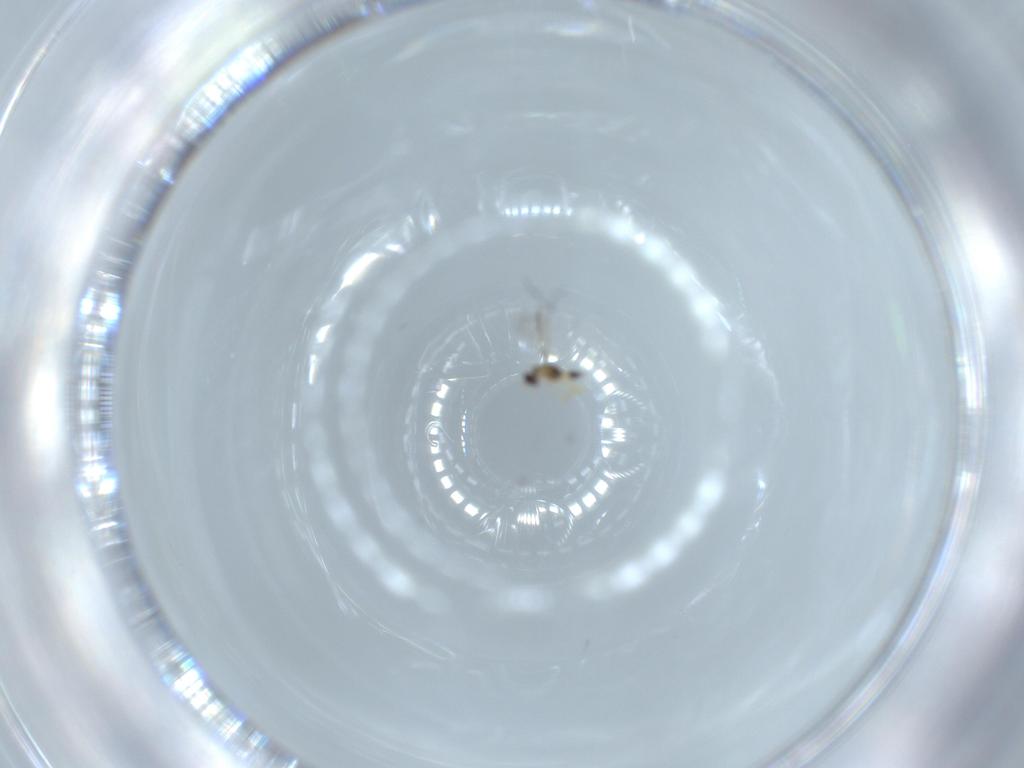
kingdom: Animalia
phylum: Arthropoda
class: Insecta
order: Hymenoptera
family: Mymaridae
